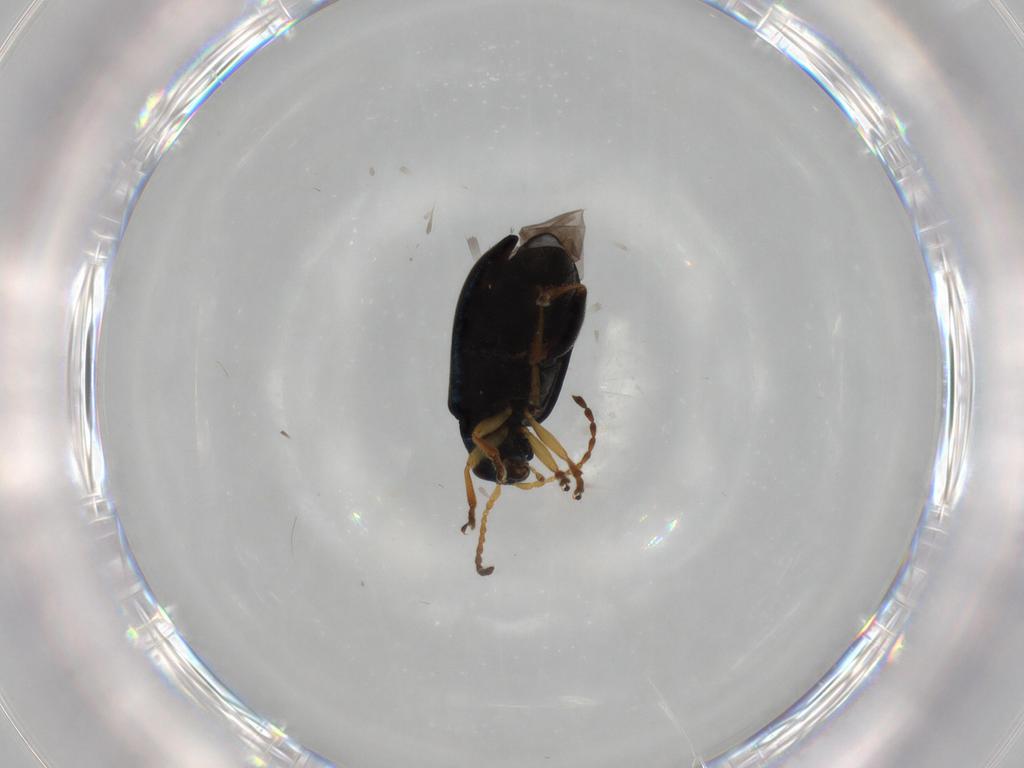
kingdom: Animalia
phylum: Arthropoda
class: Insecta
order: Coleoptera
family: Chrysomelidae
